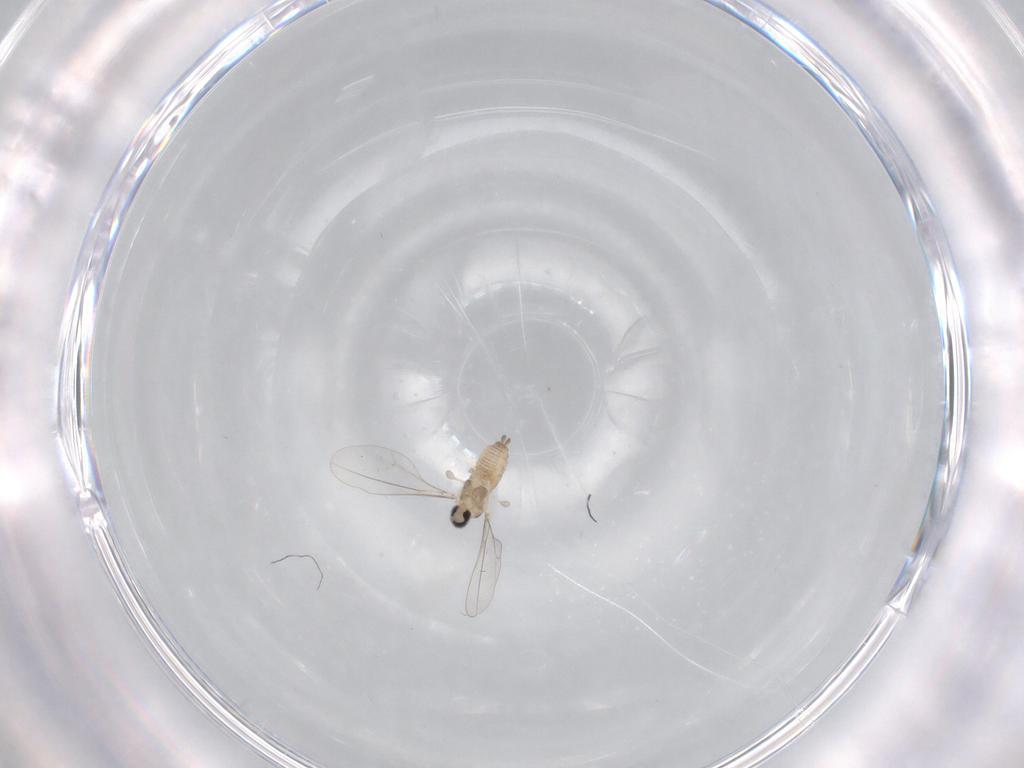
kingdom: Animalia
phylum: Arthropoda
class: Insecta
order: Diptera
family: Cecidomyiidae
